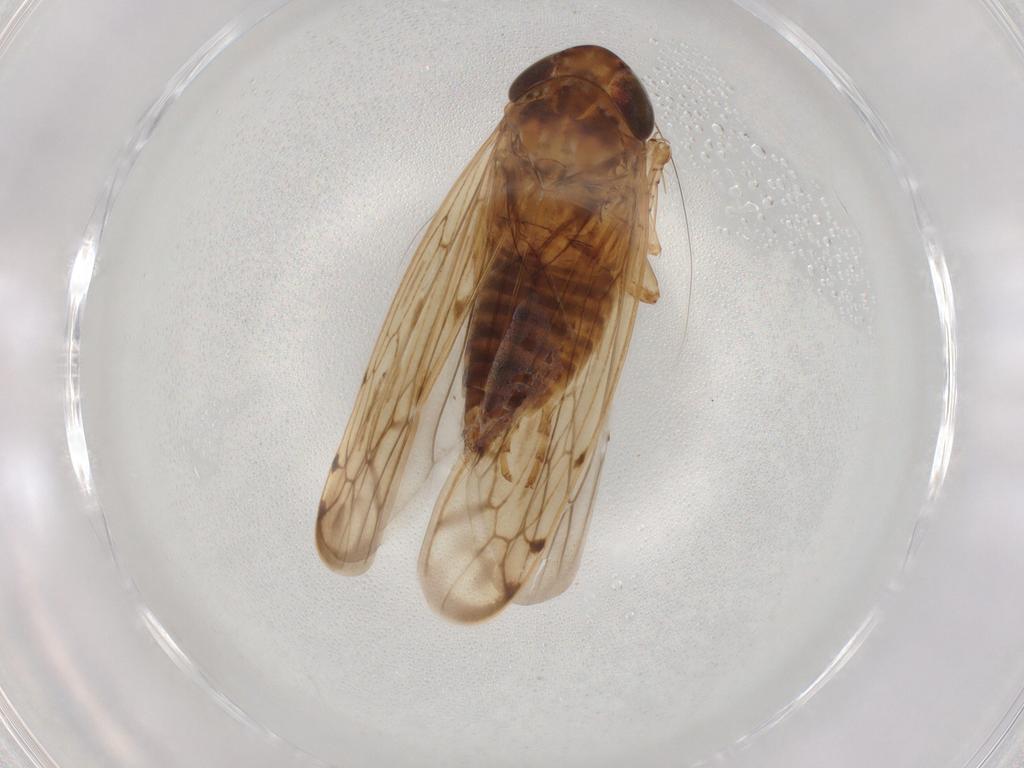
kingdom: Animalia
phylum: Arthropoda
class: Insecta
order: Hemiptera
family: Cicadellidae
